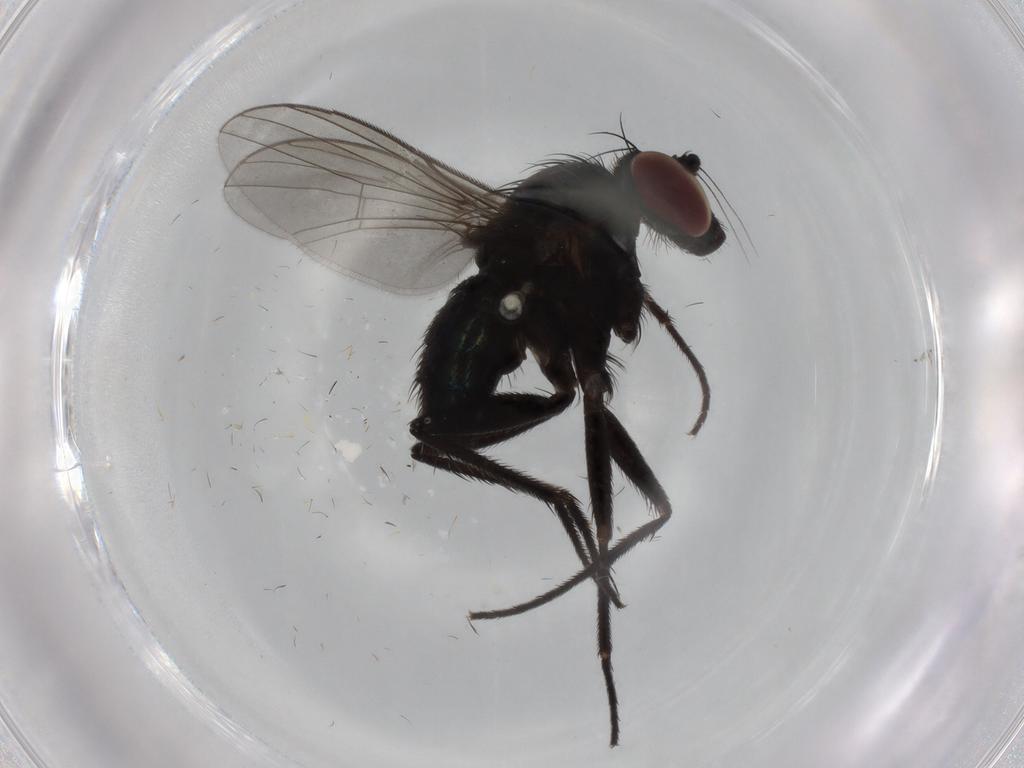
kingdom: Animalia
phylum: Arthropoda
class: Insecta
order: Diptera
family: Dolichopodidae
